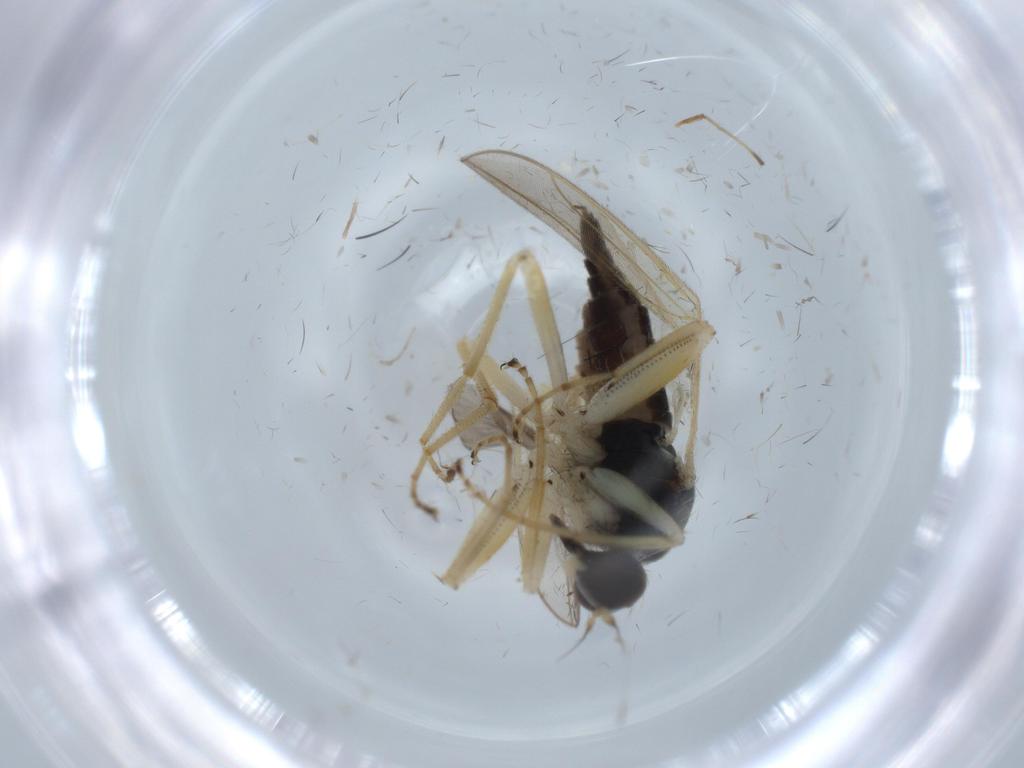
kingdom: Animalia
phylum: Arthropoda
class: Insecta
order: Diptera
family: Hybotidae
